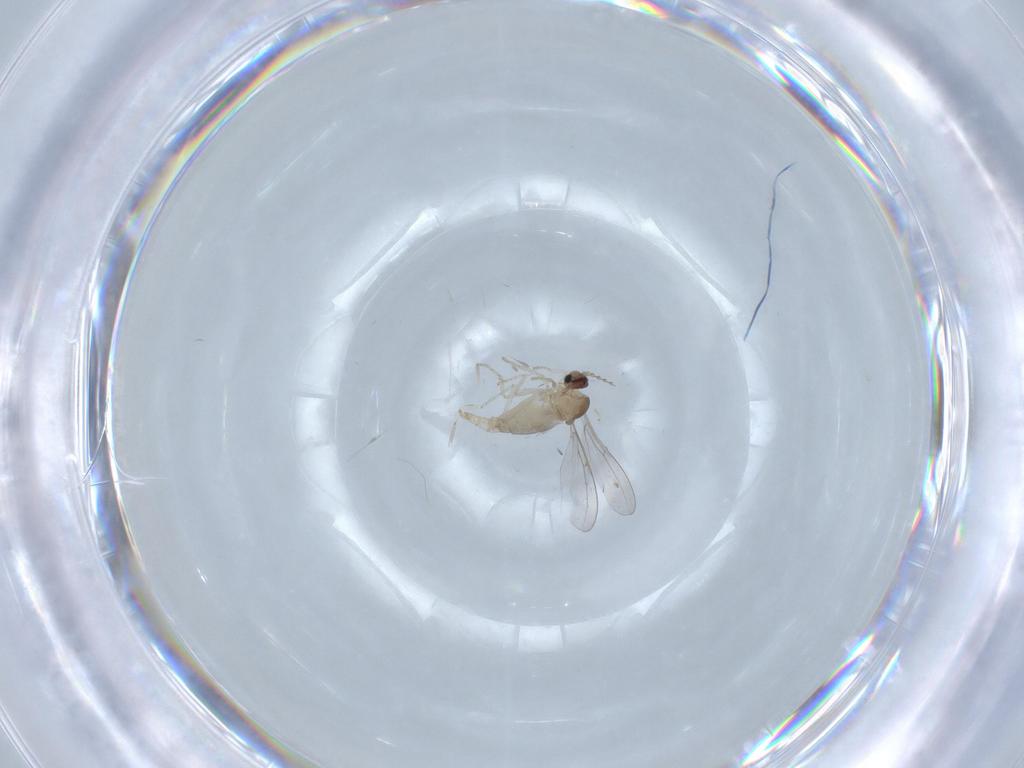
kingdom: Animalia
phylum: Arthropoda
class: Insecta
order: Diptera
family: Cecidomyiidae
